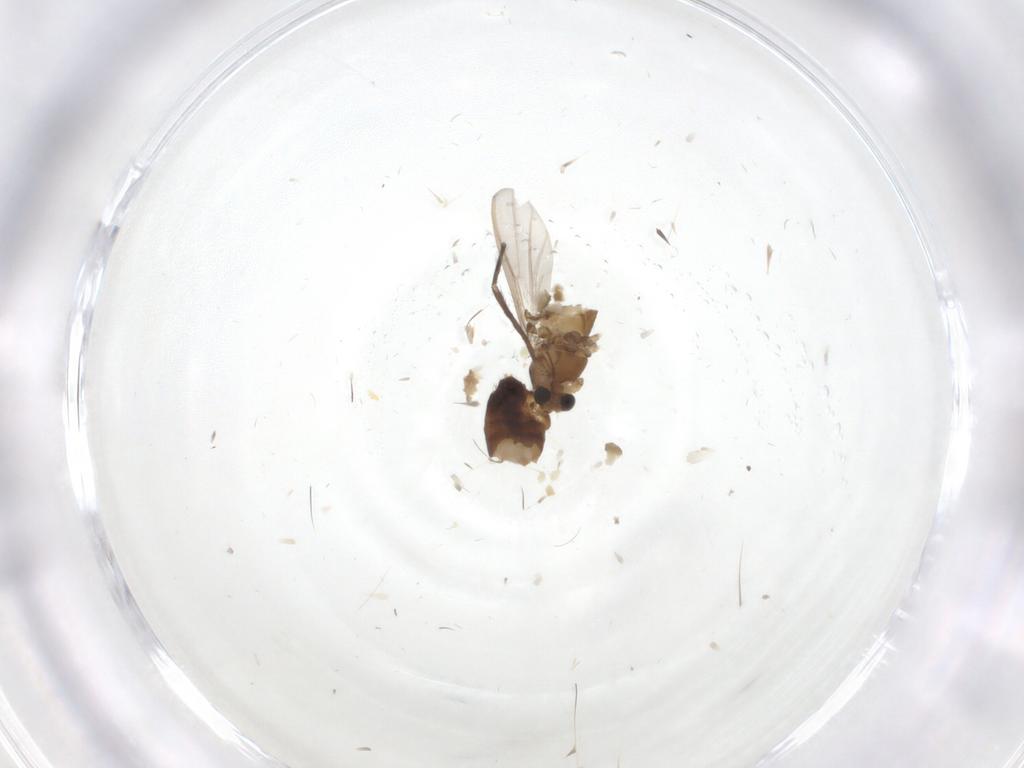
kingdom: Animalia
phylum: Arthropoda
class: Insecta
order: Diptera
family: Chironomidae
